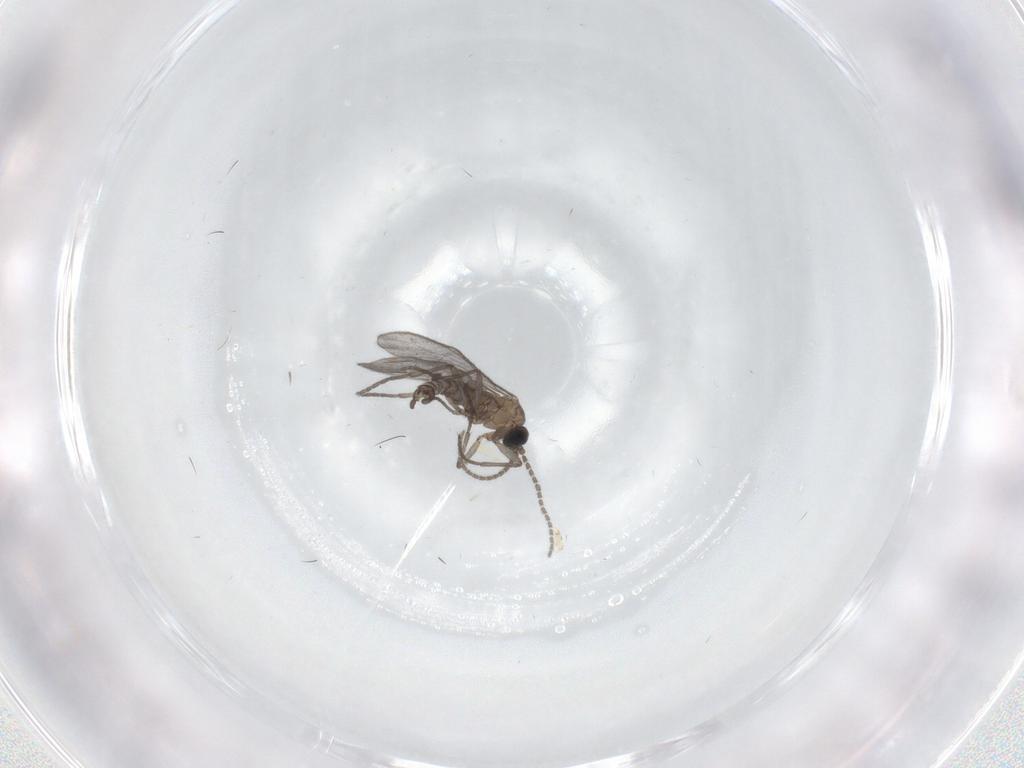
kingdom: Animalia
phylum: Arthropoda
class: Insecta
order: Diptera
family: Sciaridae
